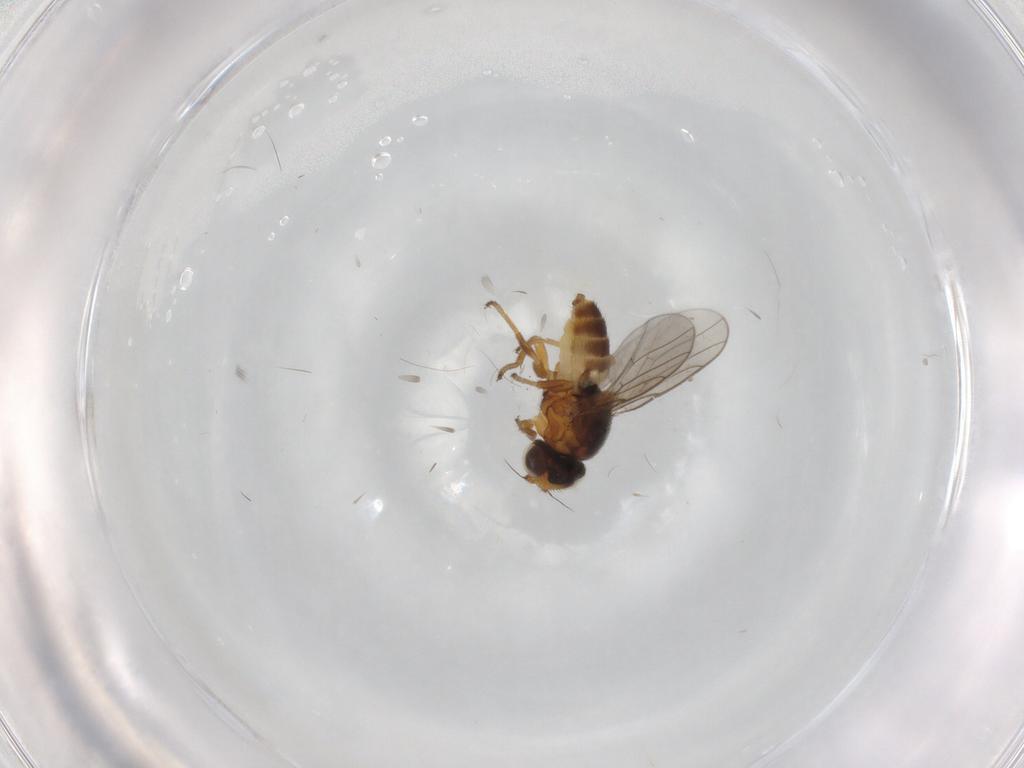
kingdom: Animalia
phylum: Arthropoda
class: Insecta
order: Diptera
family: Chloropidae
